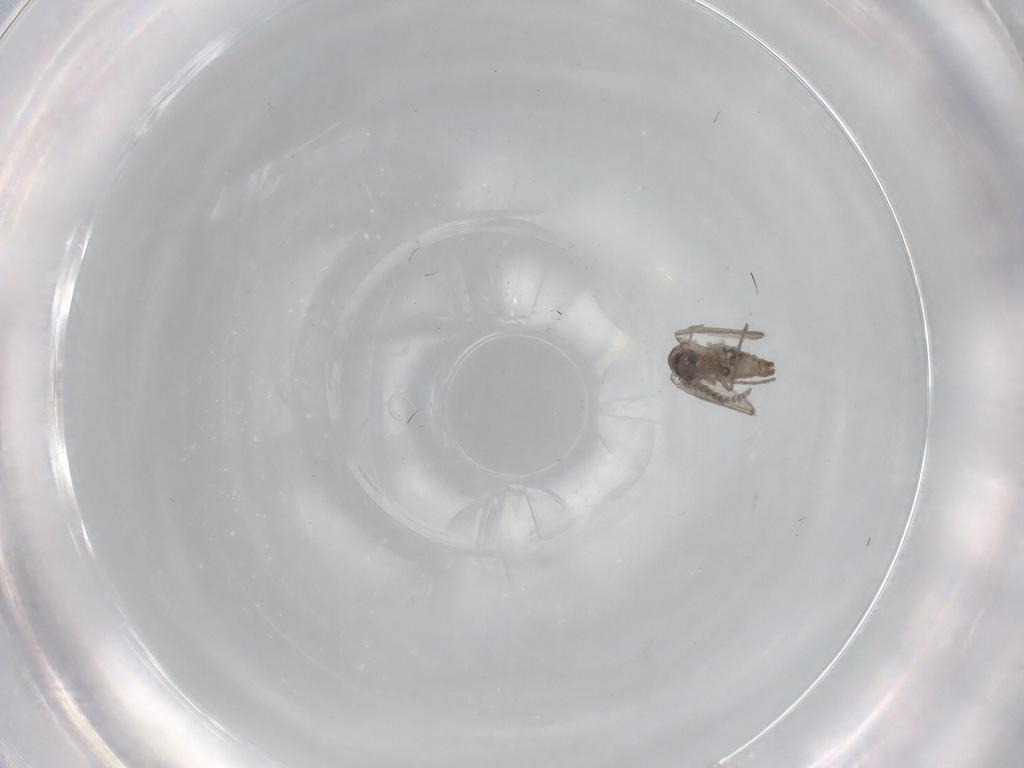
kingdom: Animalia
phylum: Arthropoda
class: Insecta
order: Diptera
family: Psychodidae
